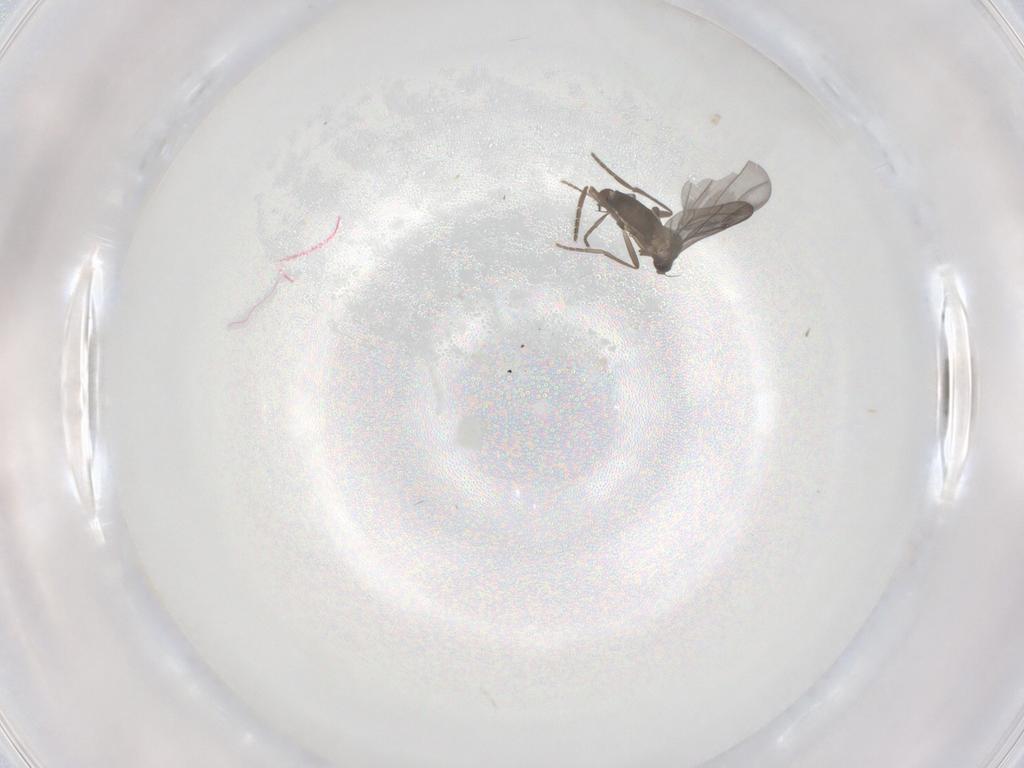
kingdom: Animalia
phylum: Arthropoda
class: Insecta
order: Diptera
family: Phoridae
